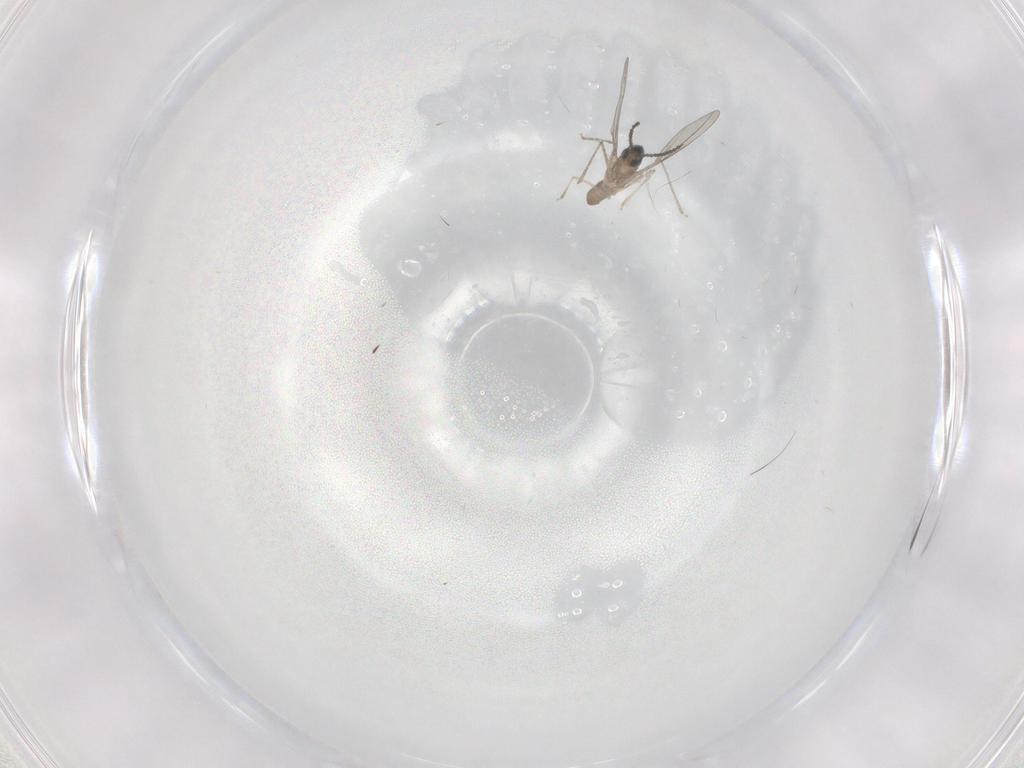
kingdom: Animalia
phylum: Arthropoda
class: Insecta
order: Diptera
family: Cecidomyiidae
